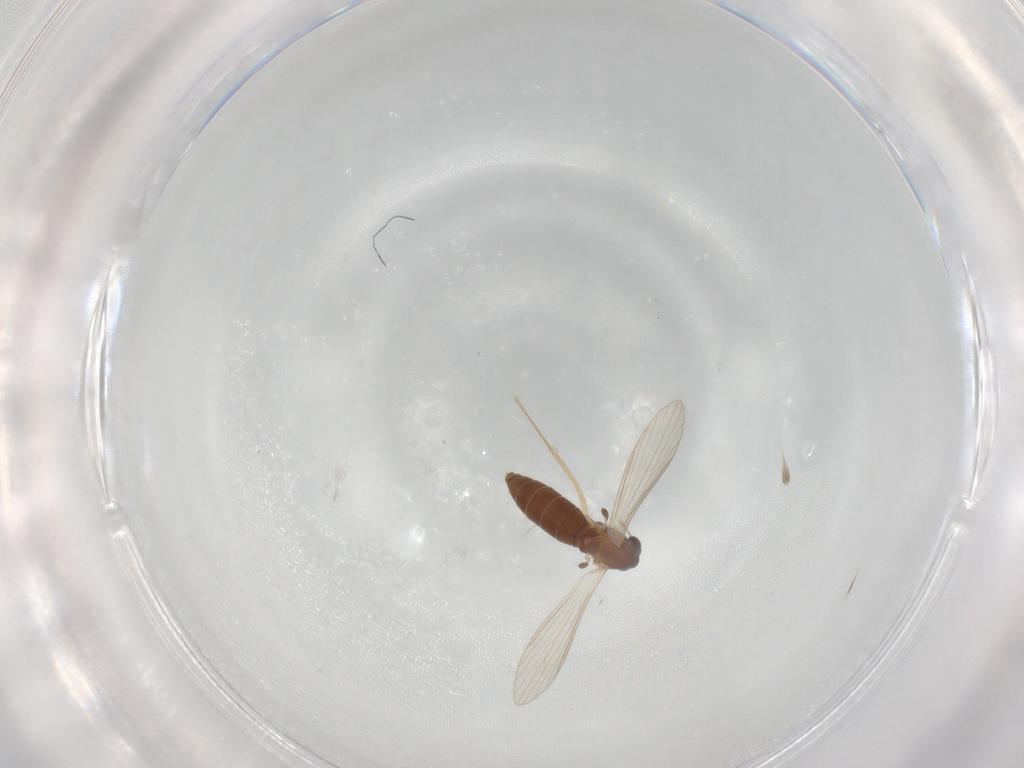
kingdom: Animalia
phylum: Arthropoda
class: Insecta
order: Diptera
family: Psychodidae
